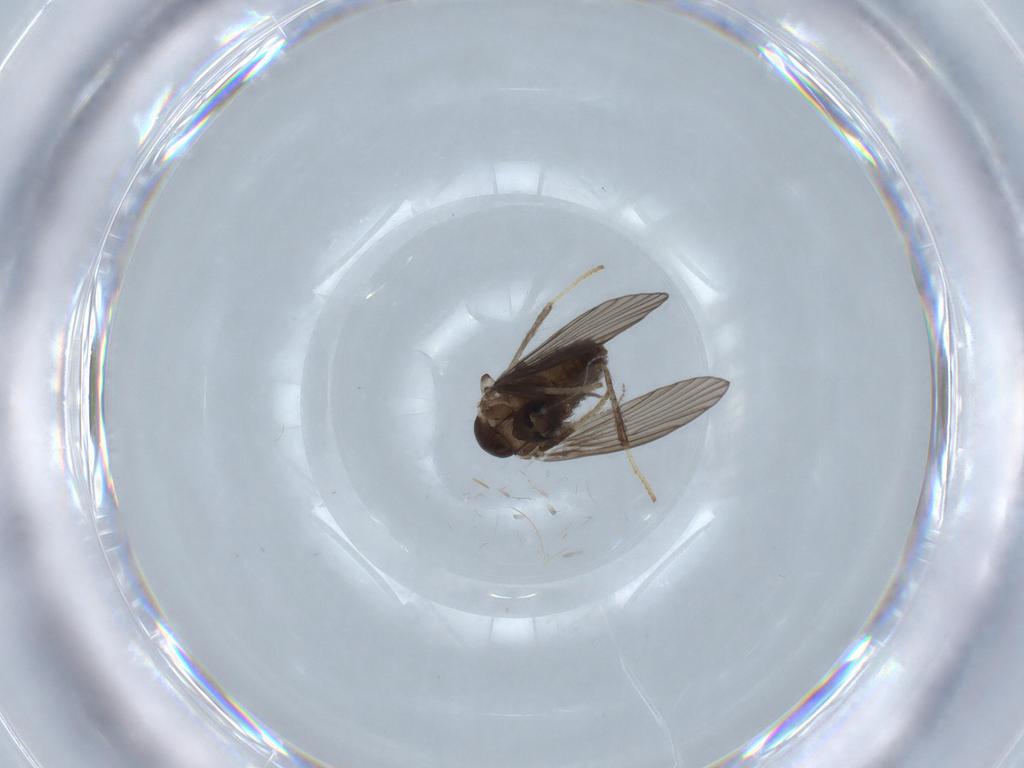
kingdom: Animalia
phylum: Arthropoda
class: Insecta
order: Diptera
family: Psychodidae
